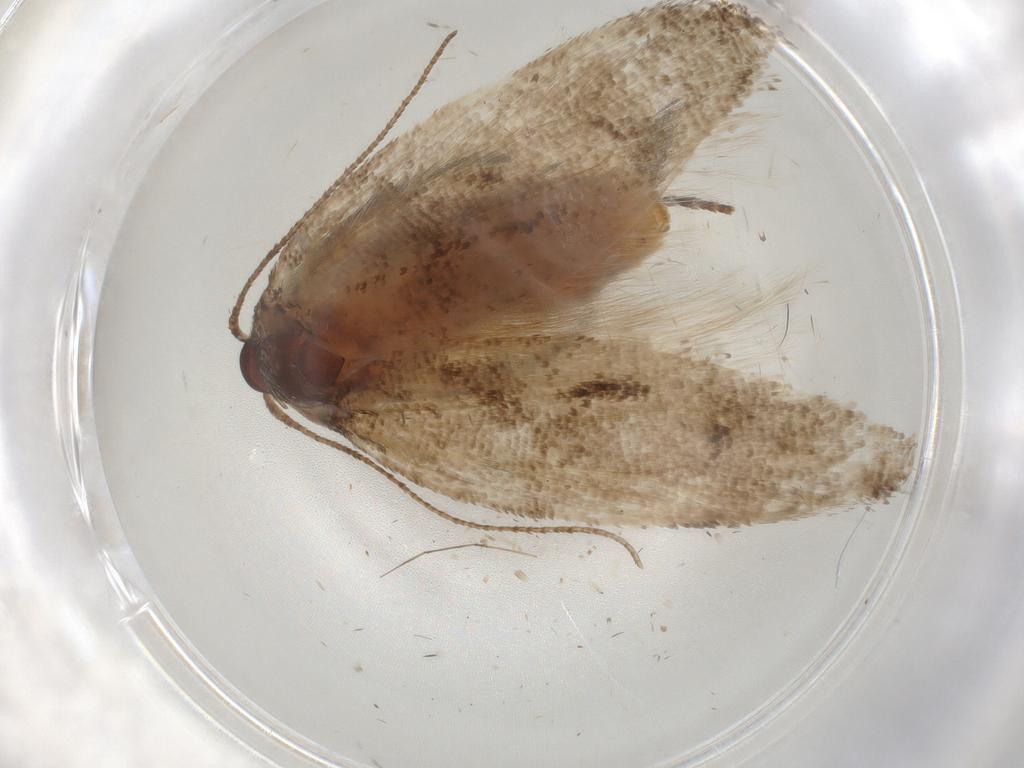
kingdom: Animalia
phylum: Arthropoda
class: Insecta
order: Lepidoptera
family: Cosmopterigidae
